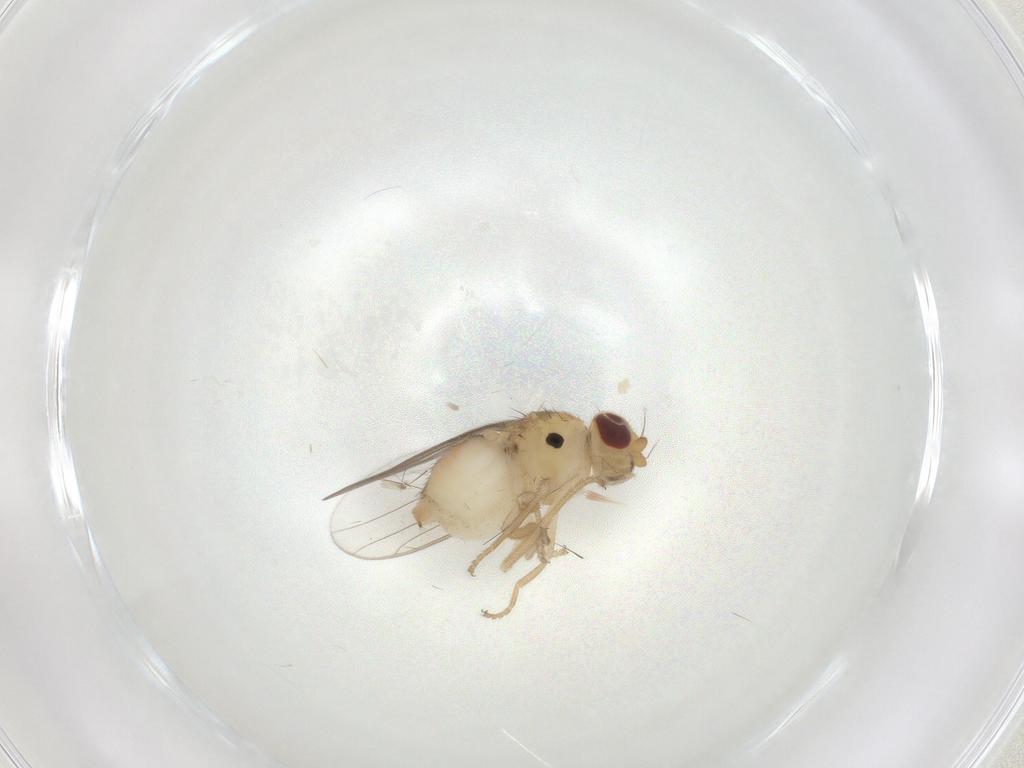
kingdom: Animalia
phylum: Arthropoda
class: Insecta
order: Diptera
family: Chloropidae
